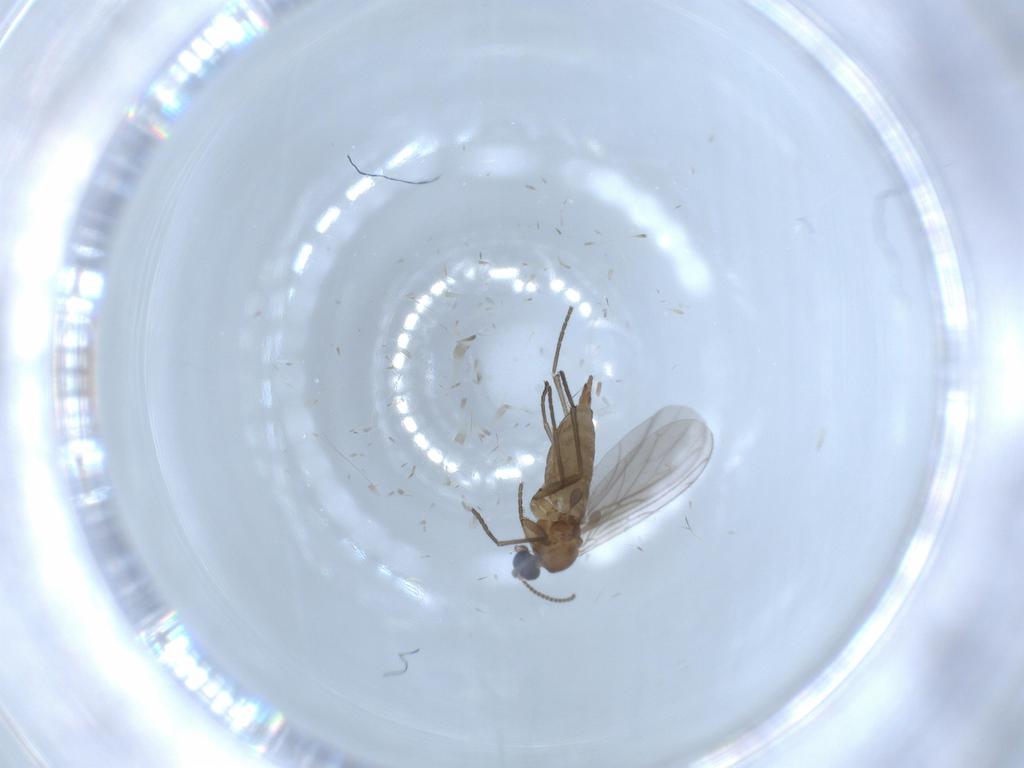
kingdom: Animalia
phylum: Arthropoda
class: Insecta
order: Diptera
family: Sciaridae
